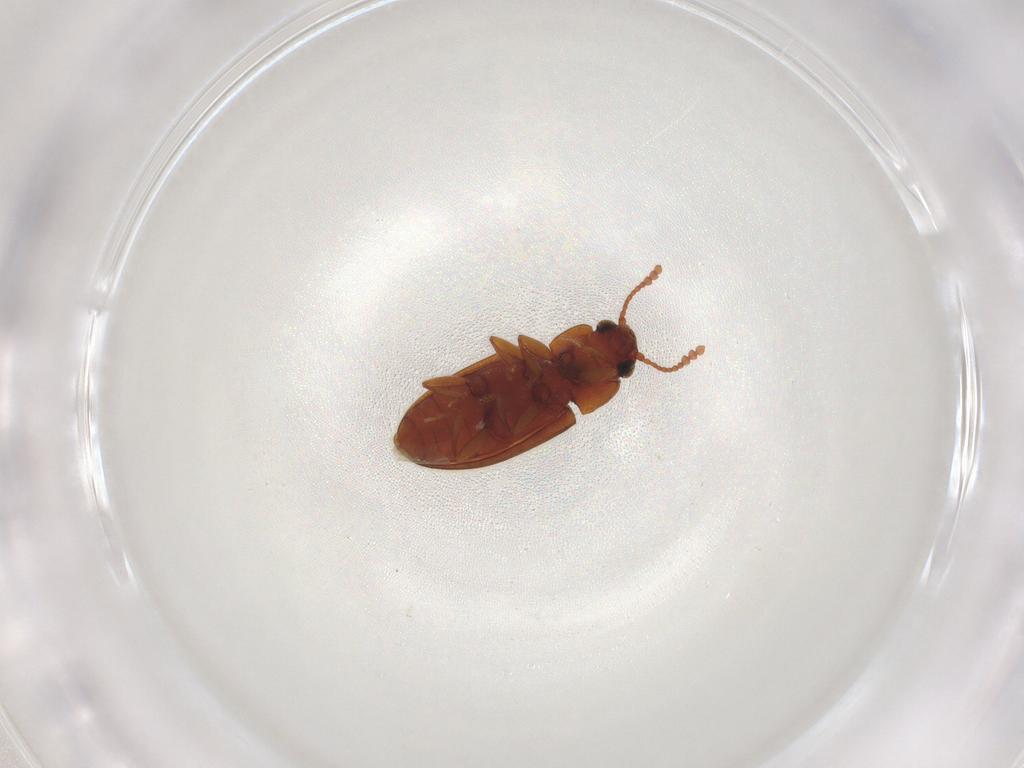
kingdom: Animalia
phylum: Arthropoda
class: Insecta
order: Coleoptera
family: Erotylidae
